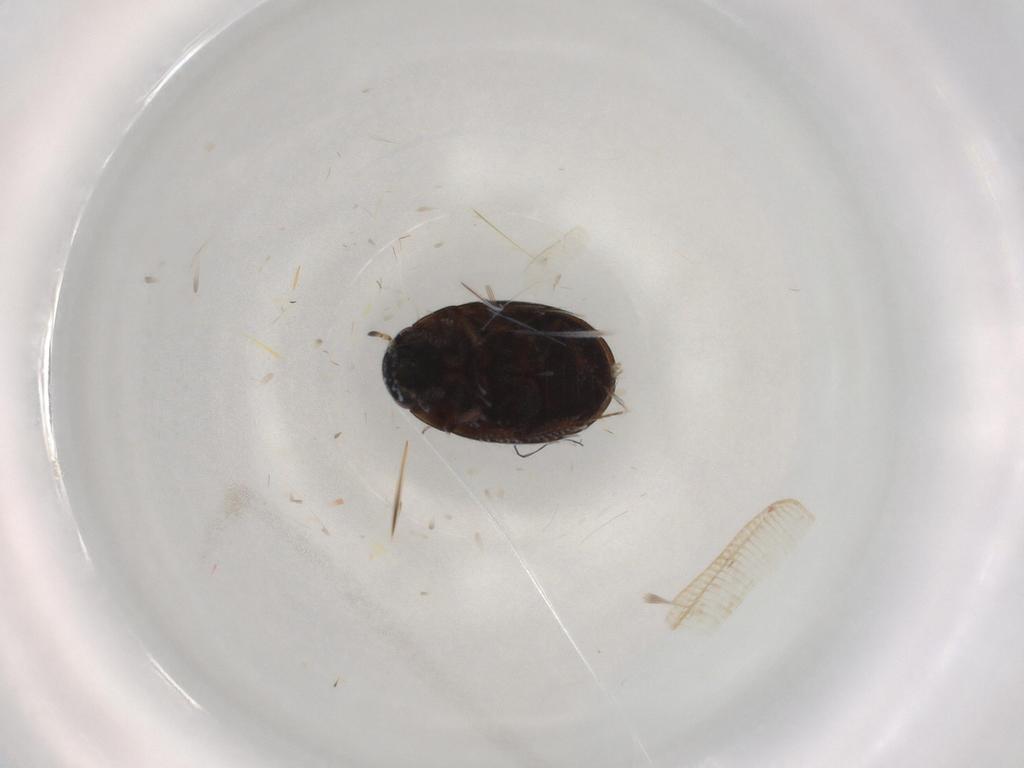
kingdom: Animalia
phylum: Arthropoda
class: Insecta
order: Coleoptera
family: Hydrophilidae
